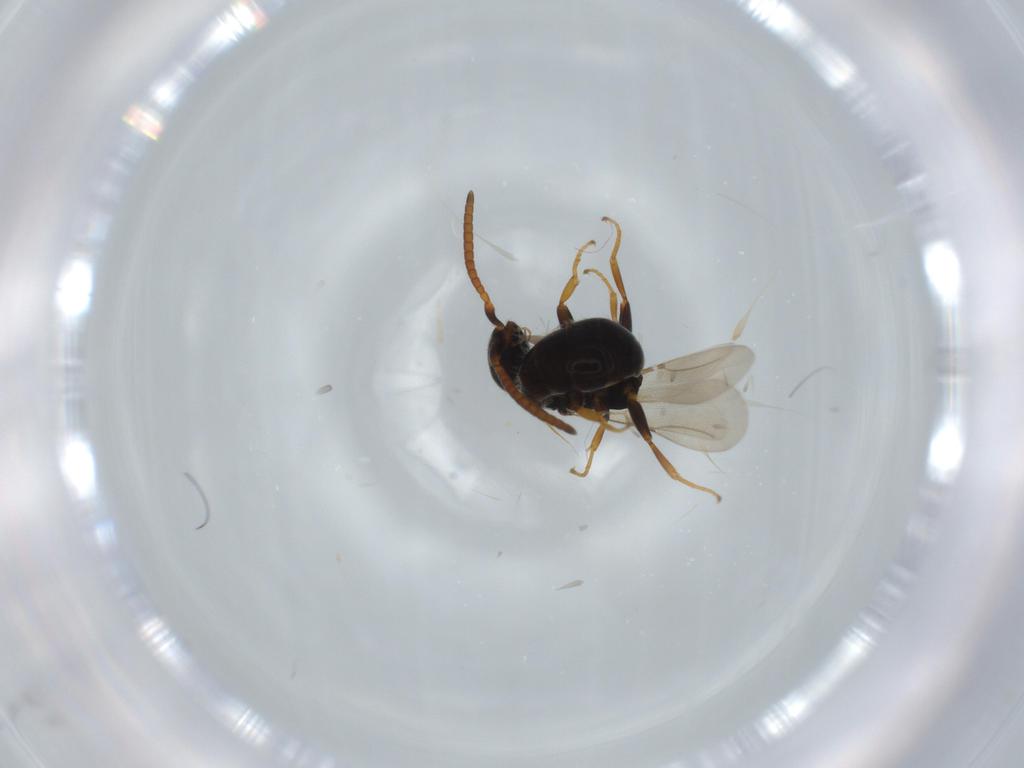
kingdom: Animalia
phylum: Arthropoda
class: Insecta
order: Hymenoptera
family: Bethylidae
